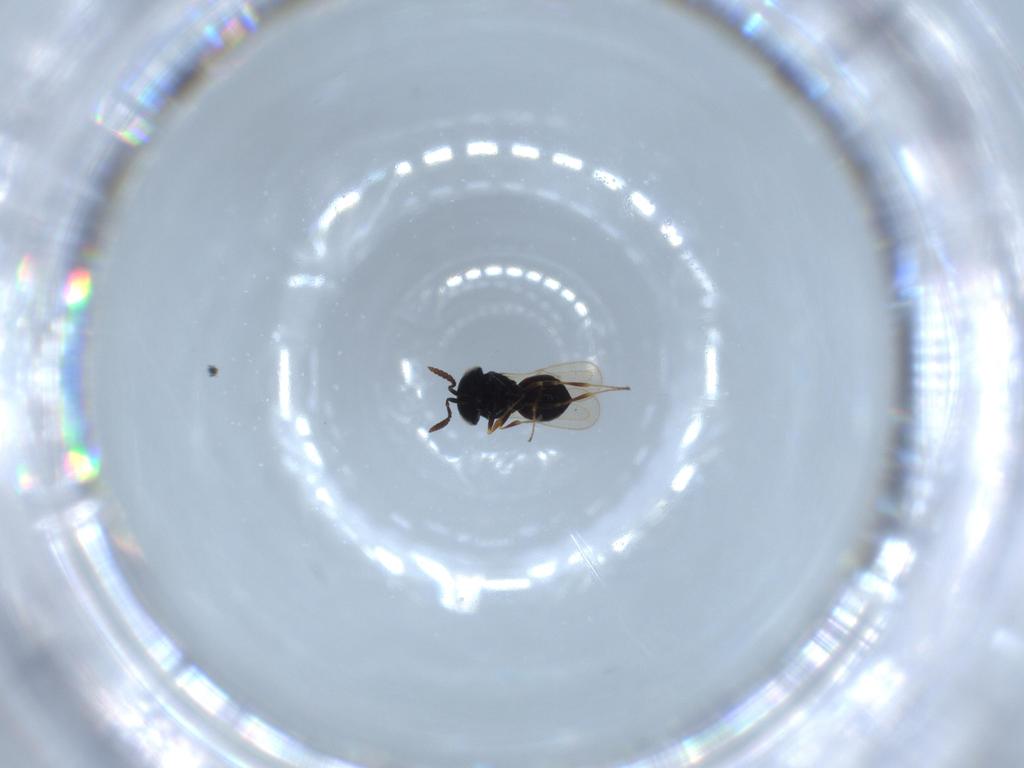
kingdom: Animalia
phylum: Arthropoda
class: Insecta
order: Hymenoptera
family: Scelionidae
